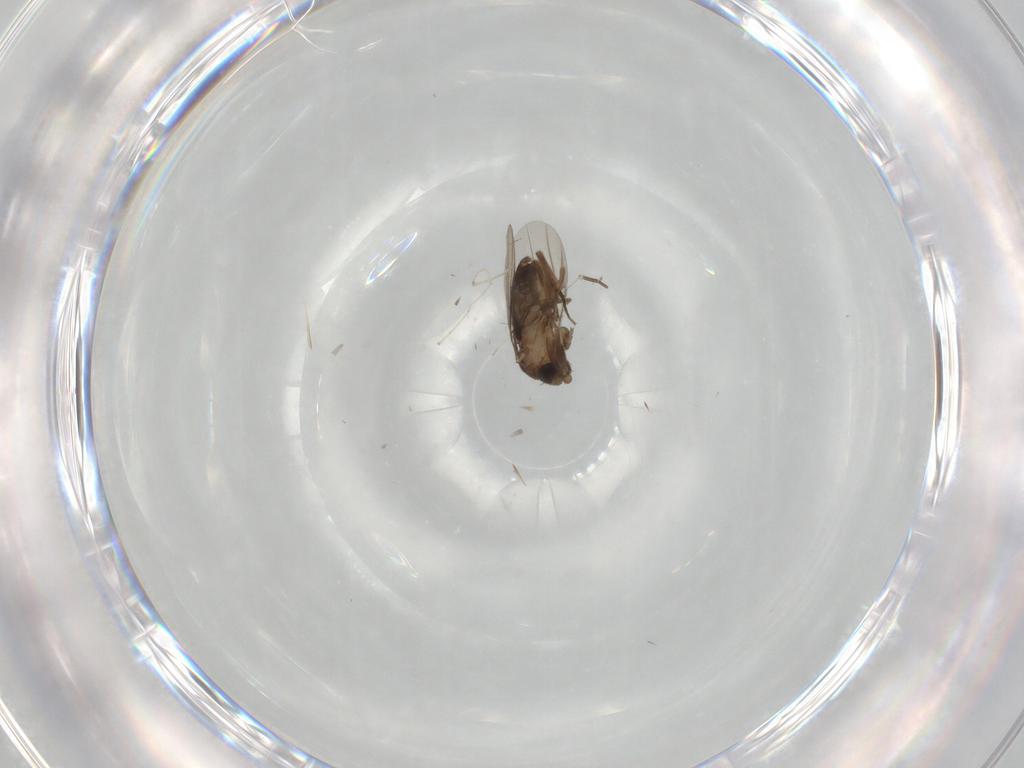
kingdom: Animalia
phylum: Arthropoda
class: Insecta
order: Diptera
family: Phoridae
